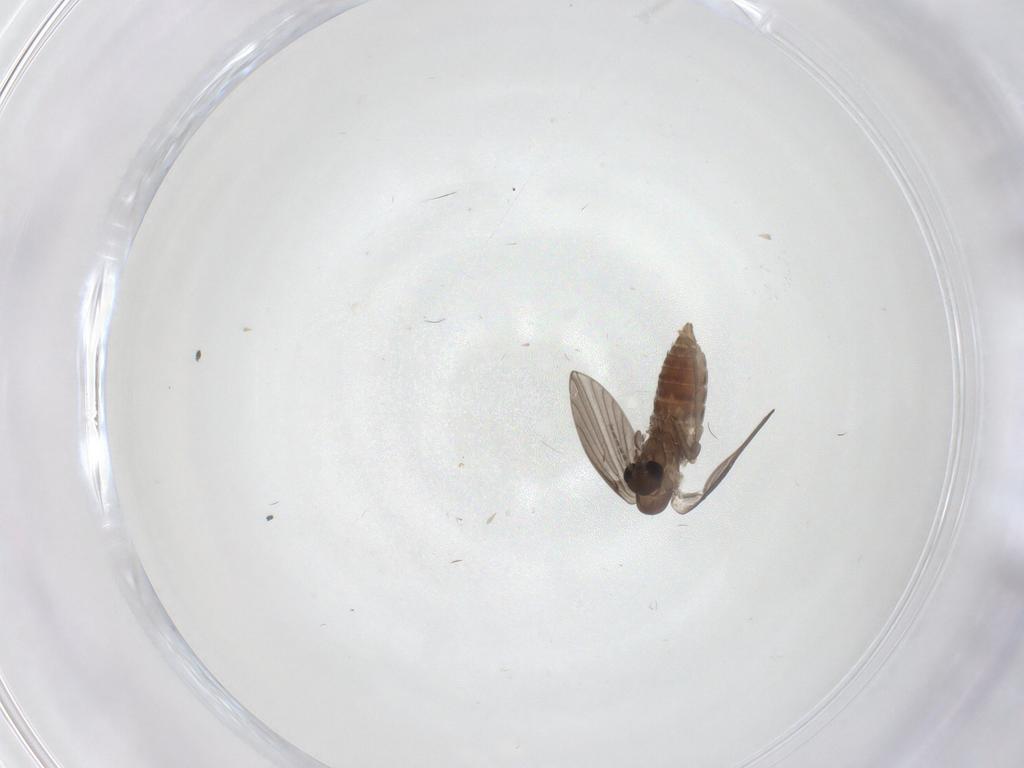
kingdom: Animalia
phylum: Arthropoda
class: Insecta
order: Diptera
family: Psychodidae
